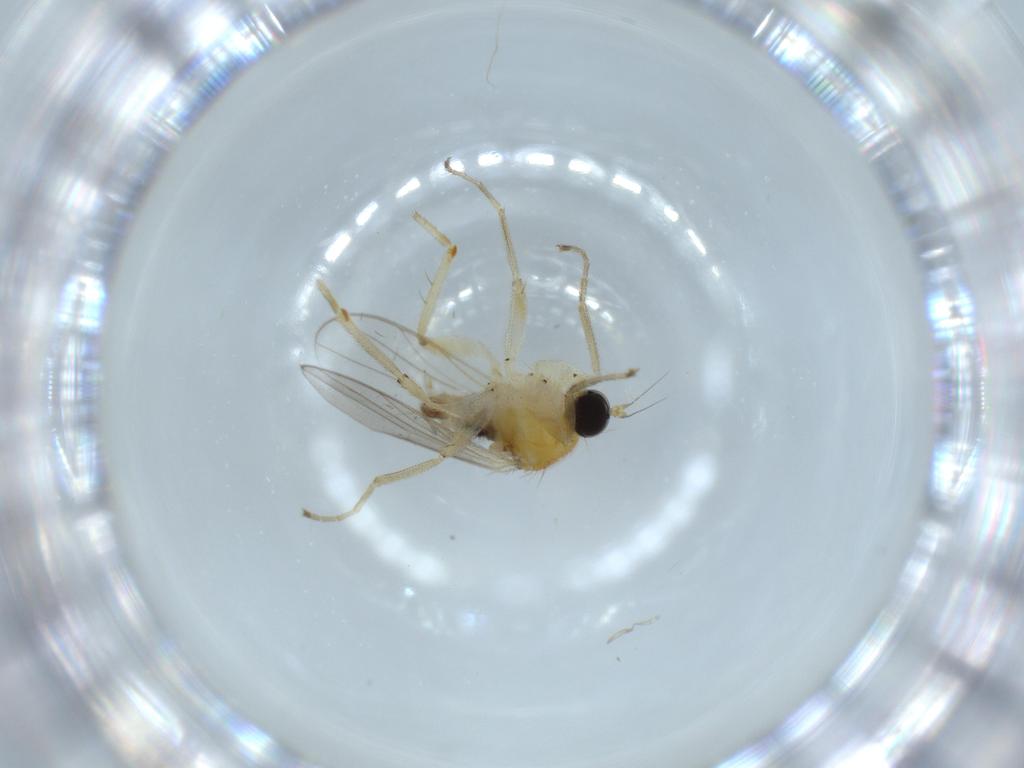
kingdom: Animalia
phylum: Arthropoda
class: Insecta
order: Diptera
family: Hybotidae
